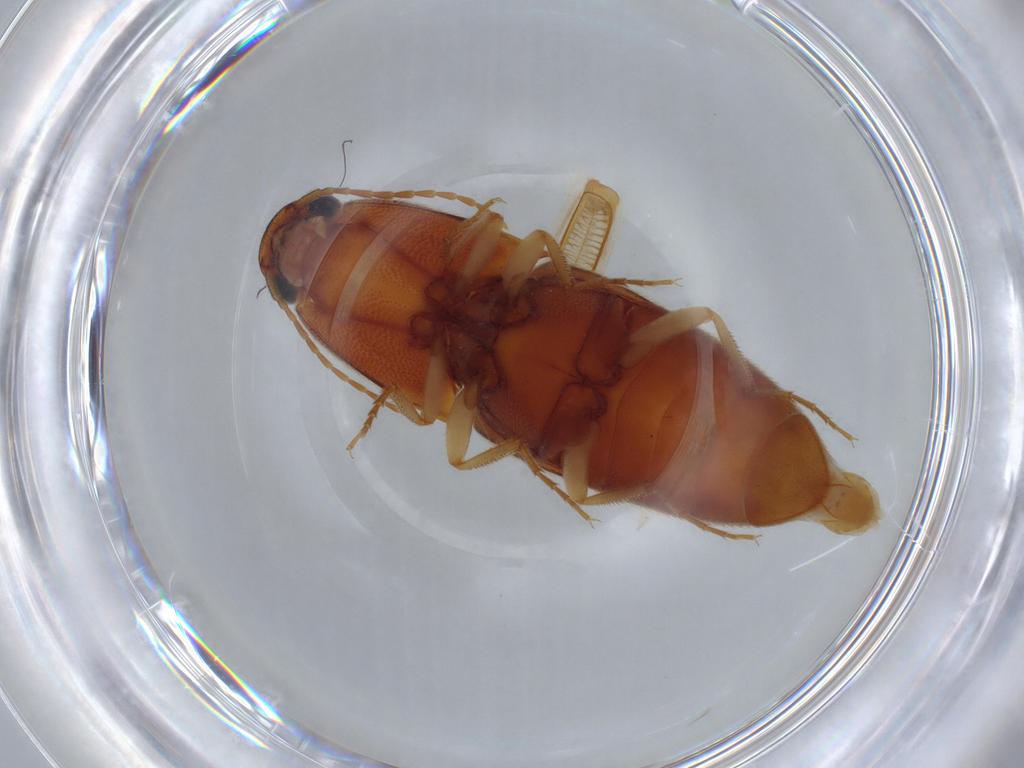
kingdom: Animalia
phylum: Arthropoda
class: Insecta
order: Coleoptera
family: Elateridae
